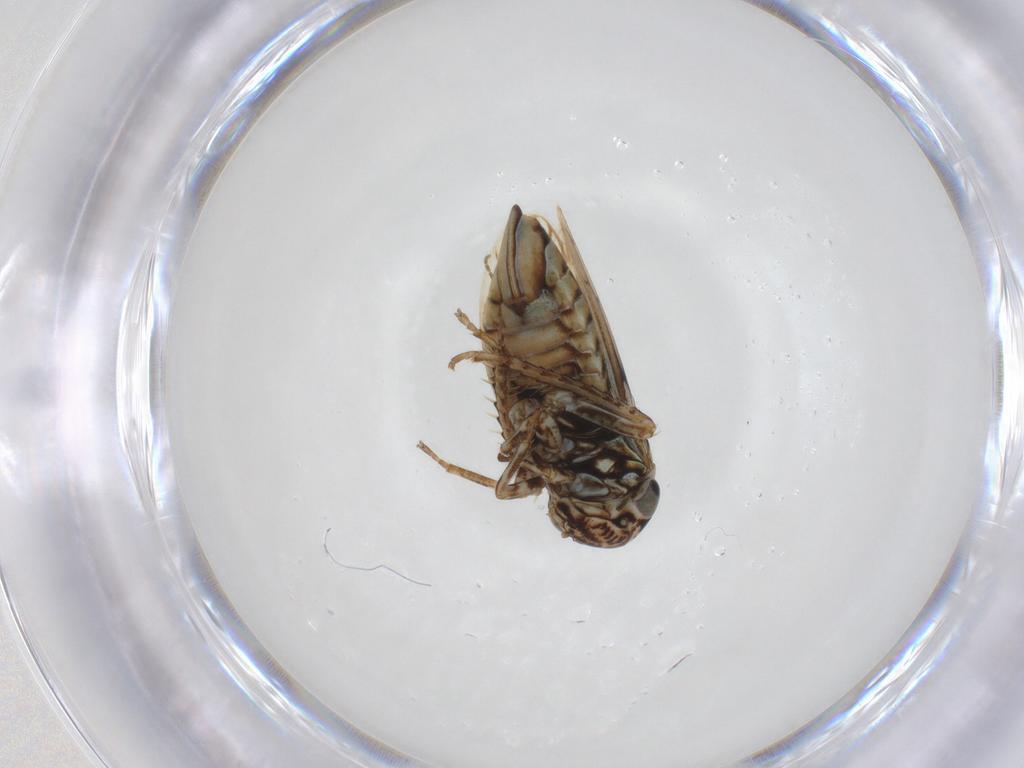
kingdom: Animalia
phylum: Arthropoda
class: Insecta
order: Hemiptera
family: Cicadellidae
